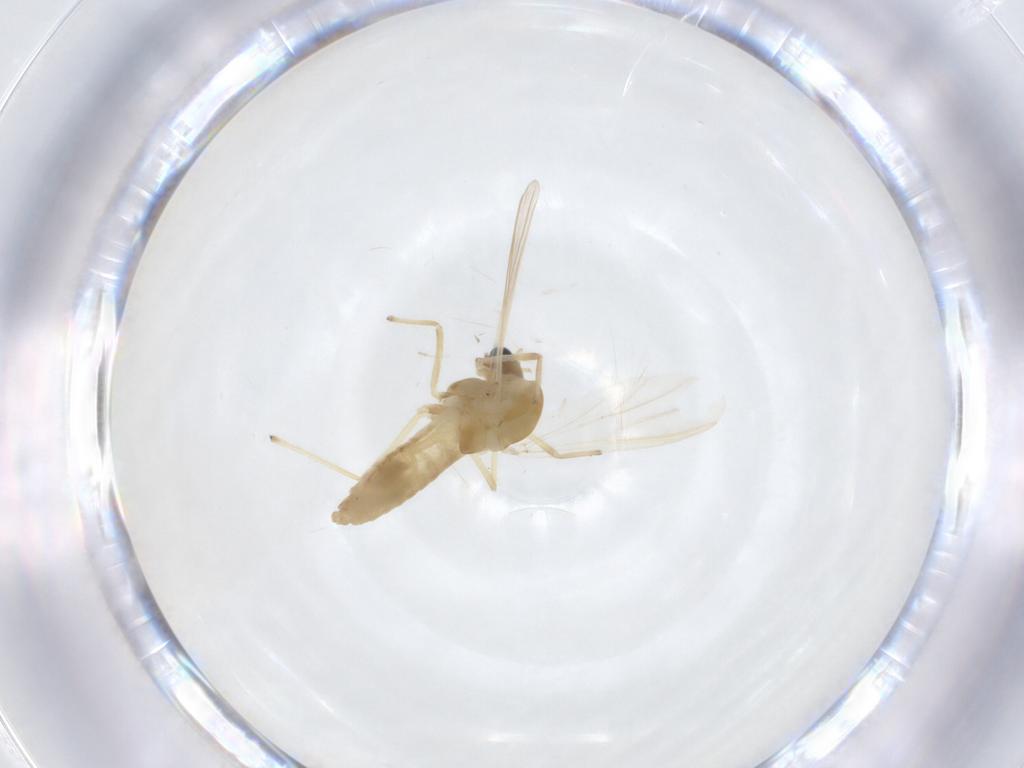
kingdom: Animalia
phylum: Arthropoda
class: Insecta
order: Diptera
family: Chironomidae
